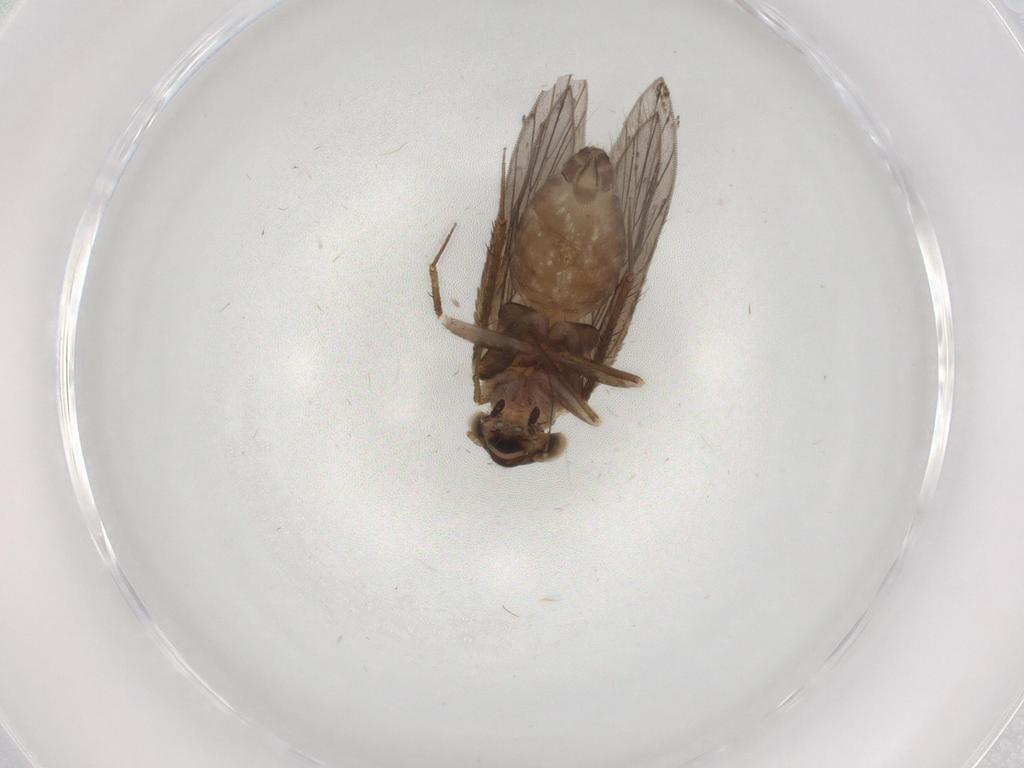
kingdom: Animalia
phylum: Arthropoda
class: Insecta
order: Psocodea
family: Lepidopsocidae
